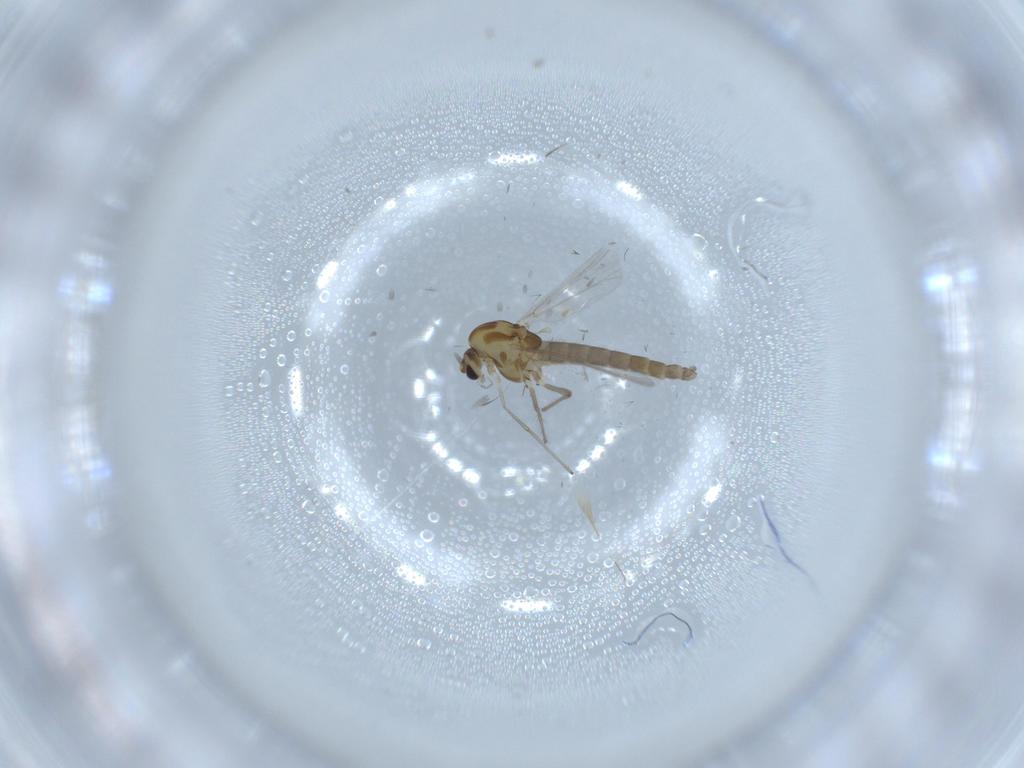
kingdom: Animalia
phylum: Arthropoda
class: Insecta
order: Diptera
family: Chironomidae
